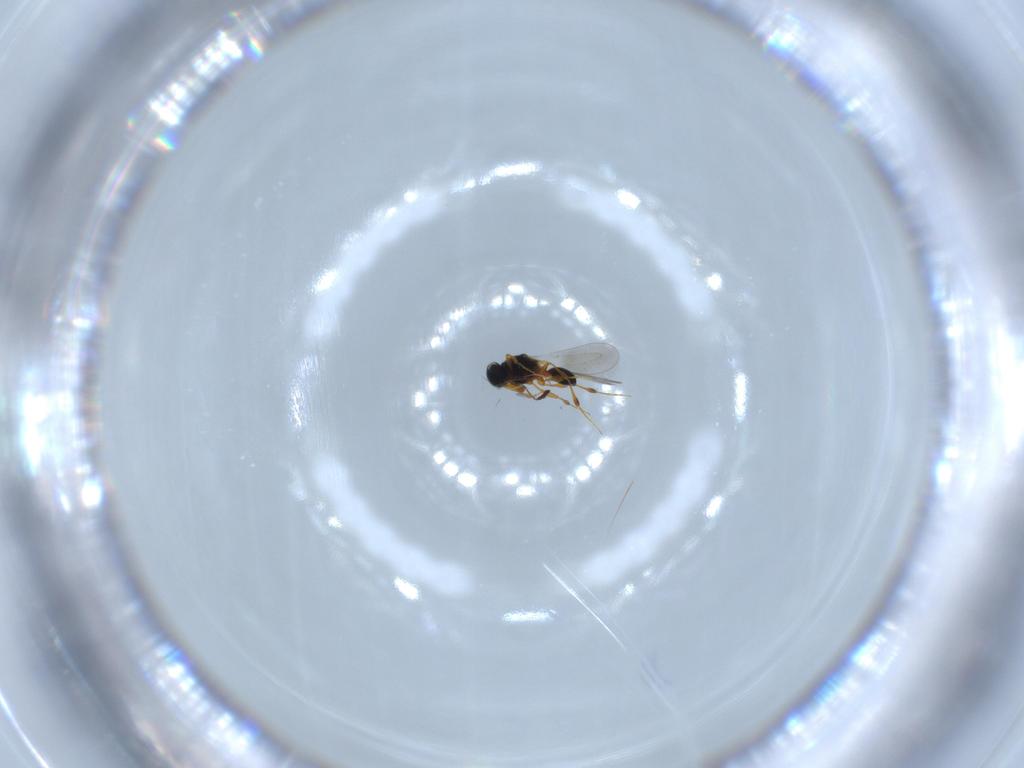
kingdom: Animalia
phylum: Arthropoda
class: Insecta
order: Hymenoptera
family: Platygastridae
